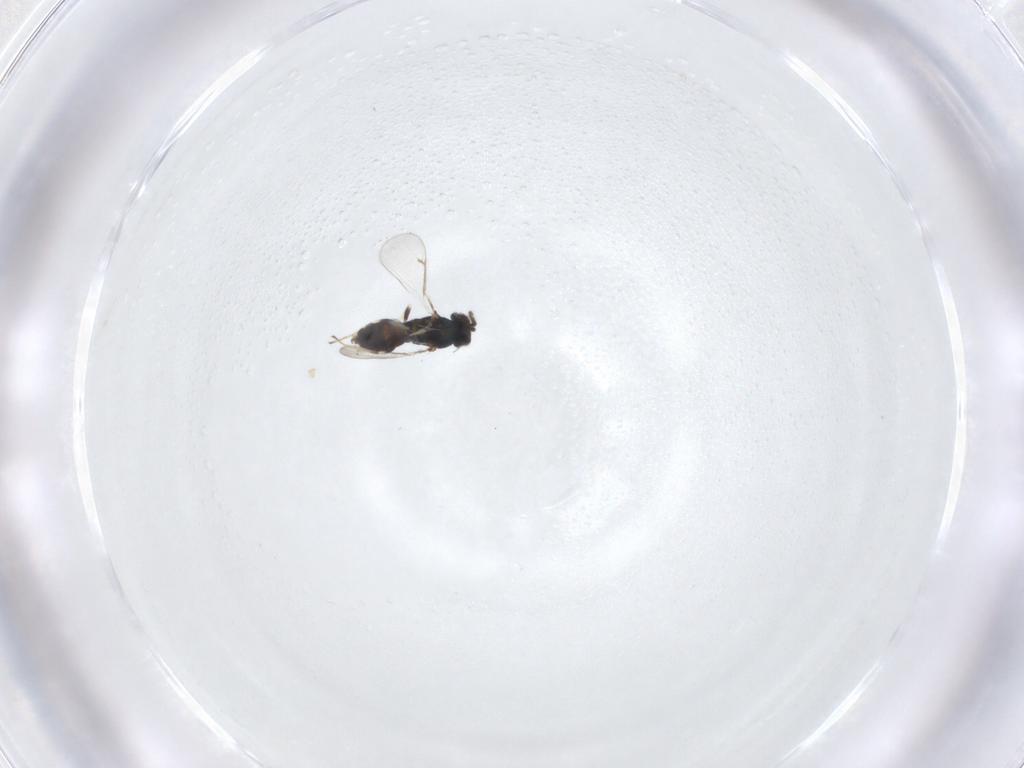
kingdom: Animalia
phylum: Arthropoda
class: Insecta
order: Hymenoptera
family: Eulophidae
